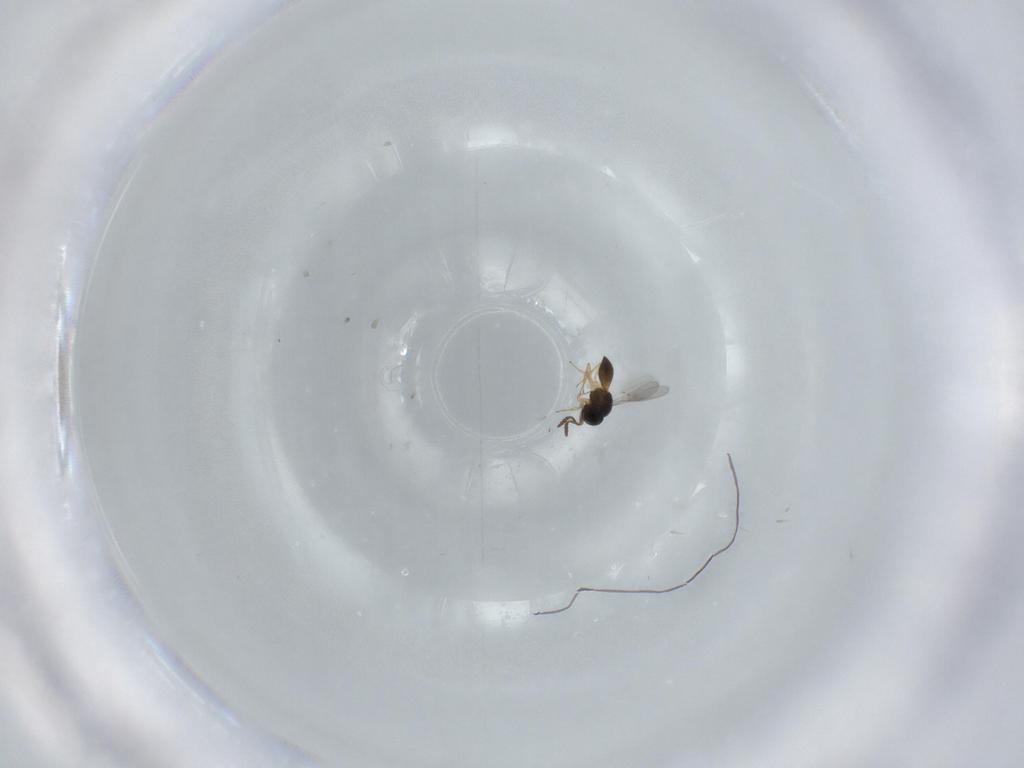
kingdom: Animalia
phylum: Arthropoda
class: Insecta
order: Hymenoptera
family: Scelionidae
